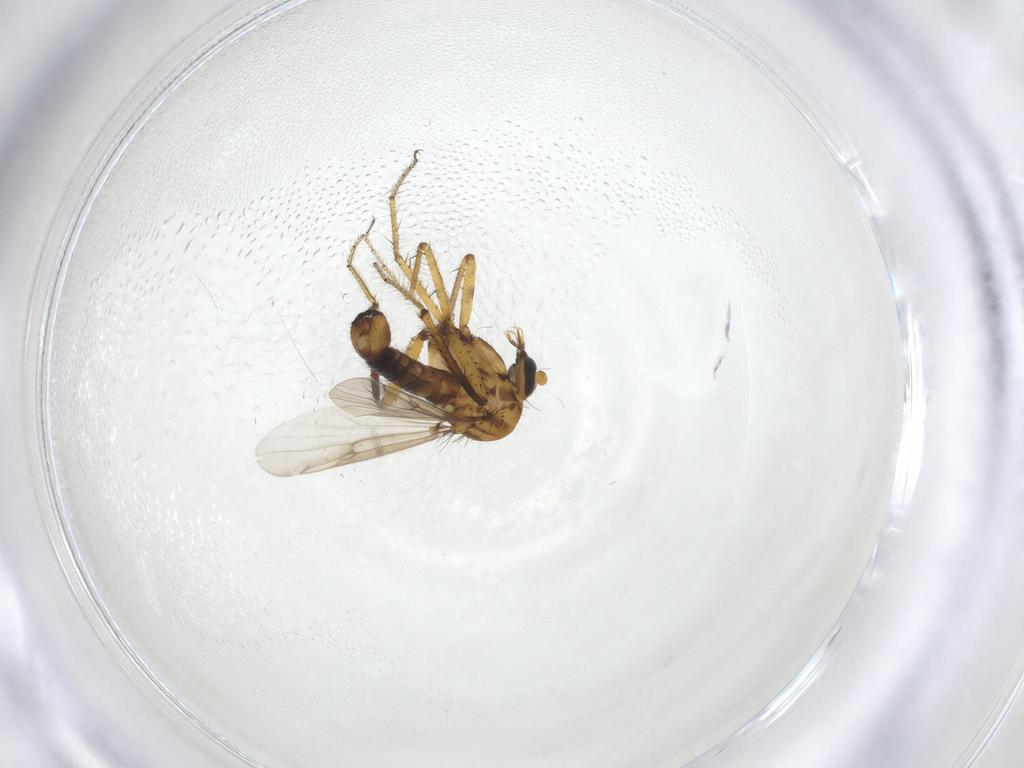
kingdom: Animalia
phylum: Arthropoda
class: Insecta
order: Diptera
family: Ceratopogonidae
